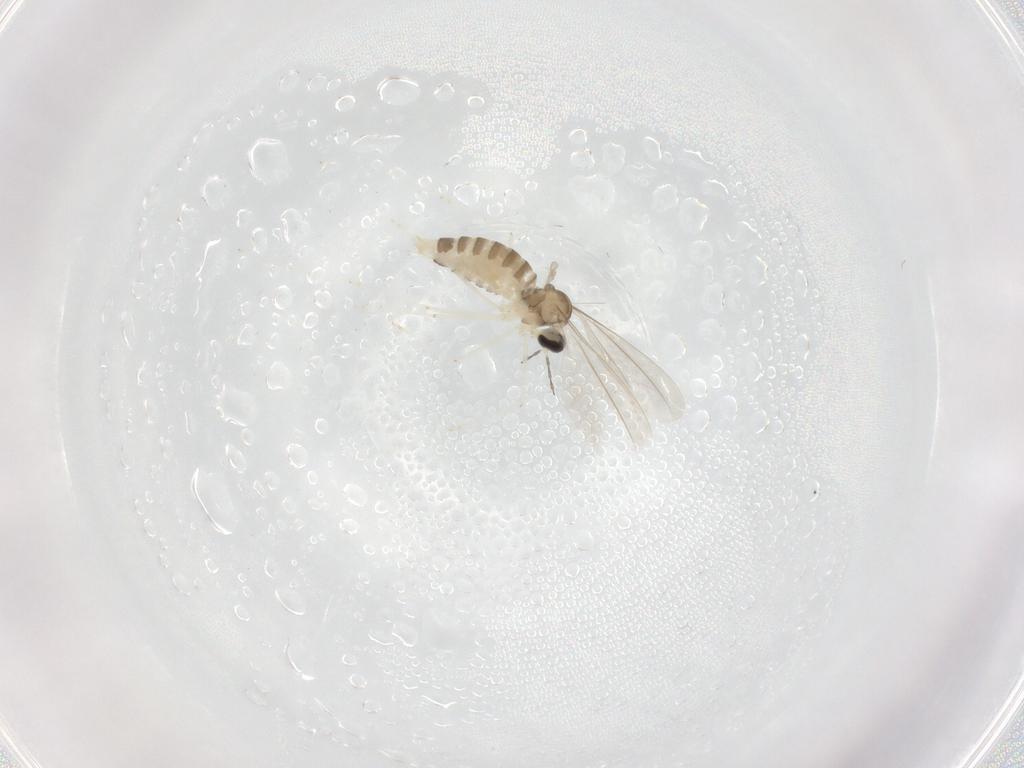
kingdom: Animalia
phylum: Arthropoda
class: Insecta
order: Diptera
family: Cecidomyiidae
